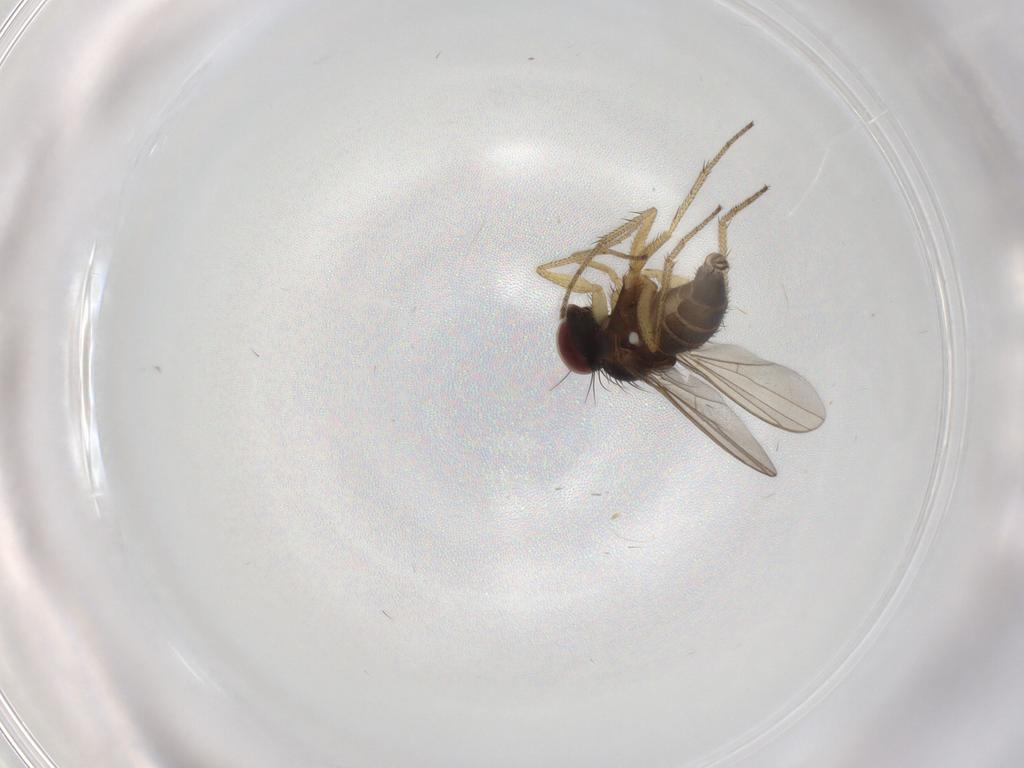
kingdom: Animalia
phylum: Arthropoda
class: Insecta
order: Diptera
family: Dolichopodidae
